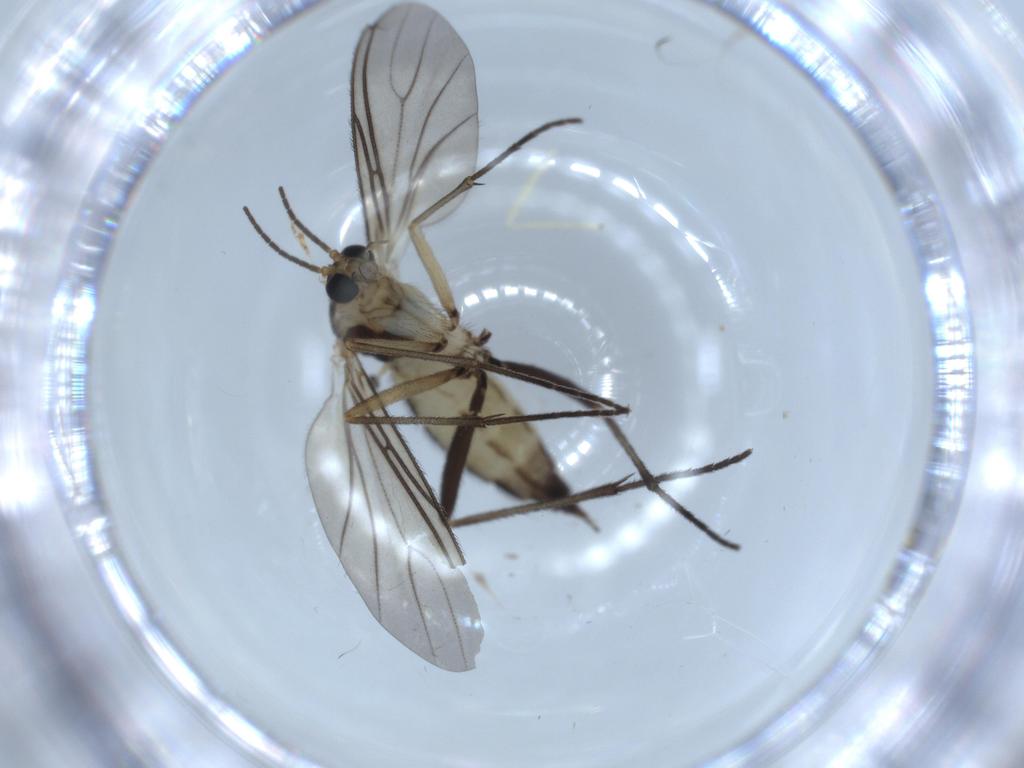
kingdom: Animalia
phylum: Arthropoda
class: Insecta
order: Diptera
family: Sciaridae
